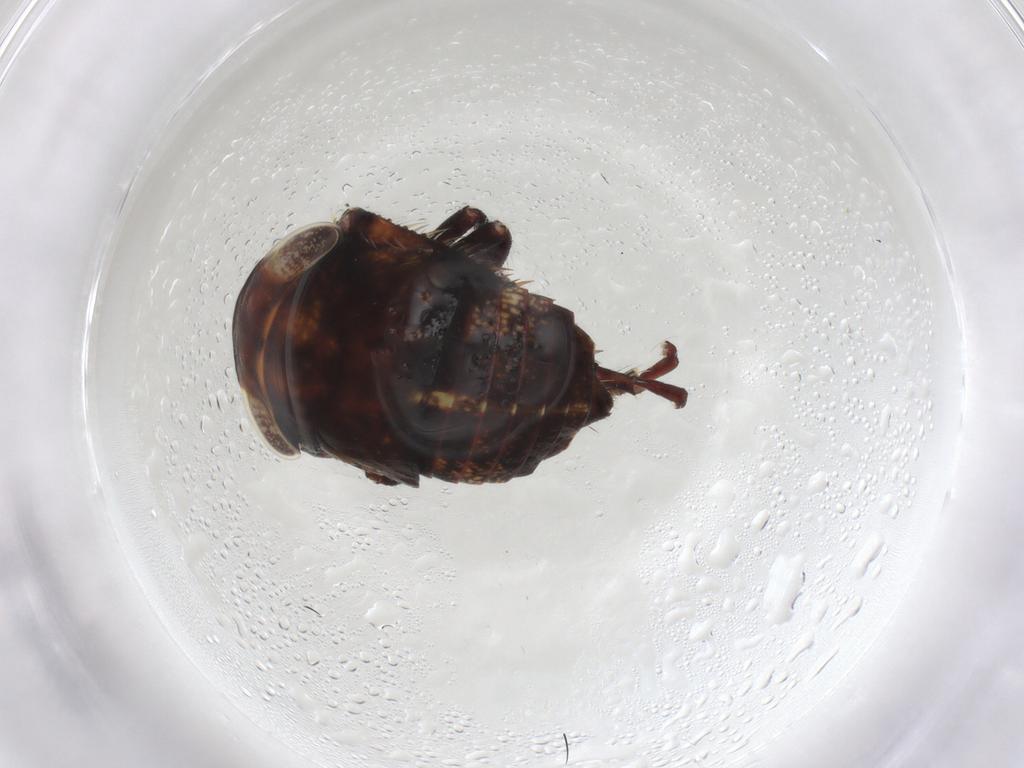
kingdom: Animalia
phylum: Arthropoda
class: Insecta
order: Hemiptera
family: Cicadellidae
